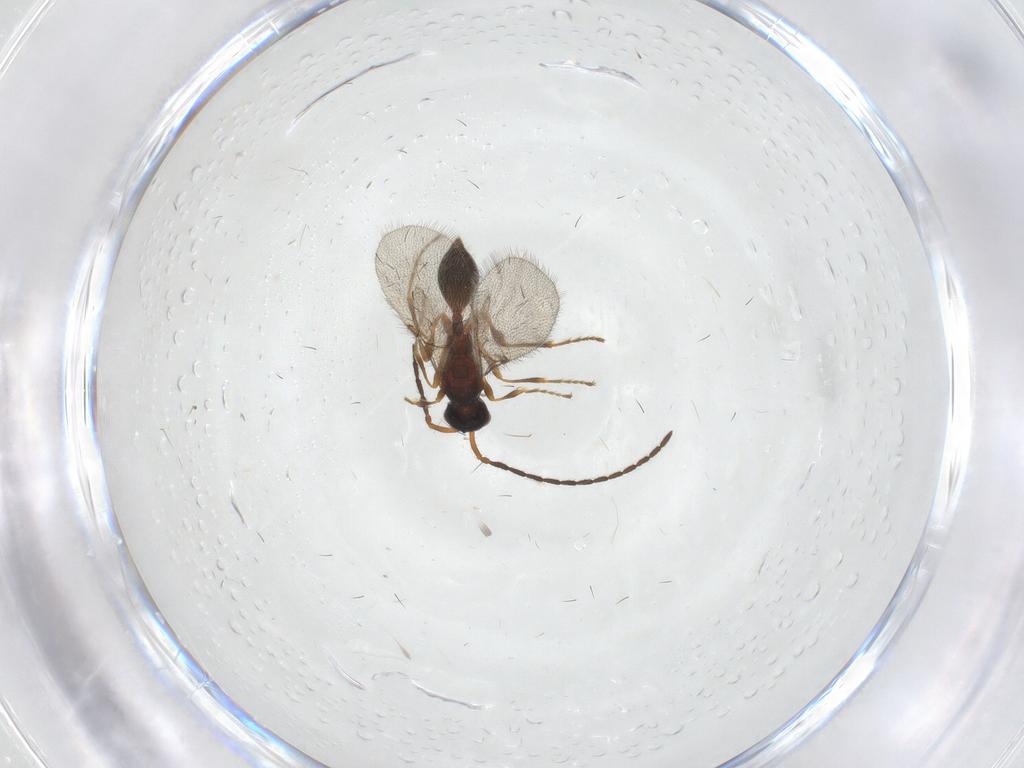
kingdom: Animalia
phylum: Arthropoda
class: Insecta
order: Hymenoptera
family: Diapriidae
